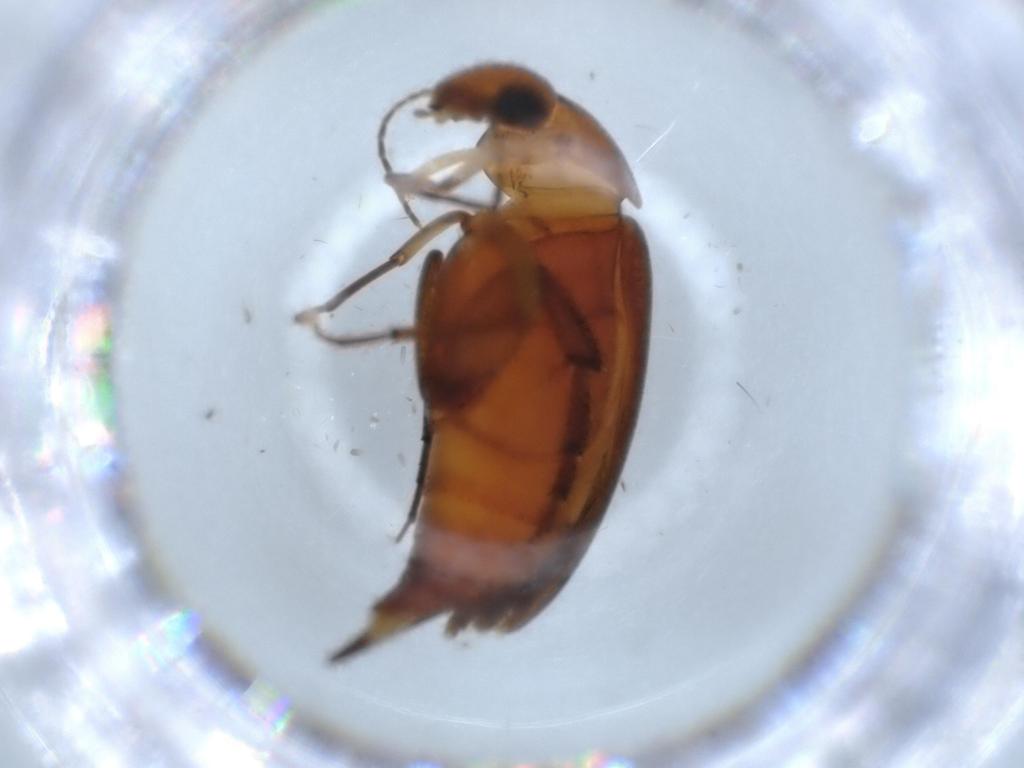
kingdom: Animalia
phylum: Arthropoda
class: Insecta
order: Coleoptera
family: Mordellidae
